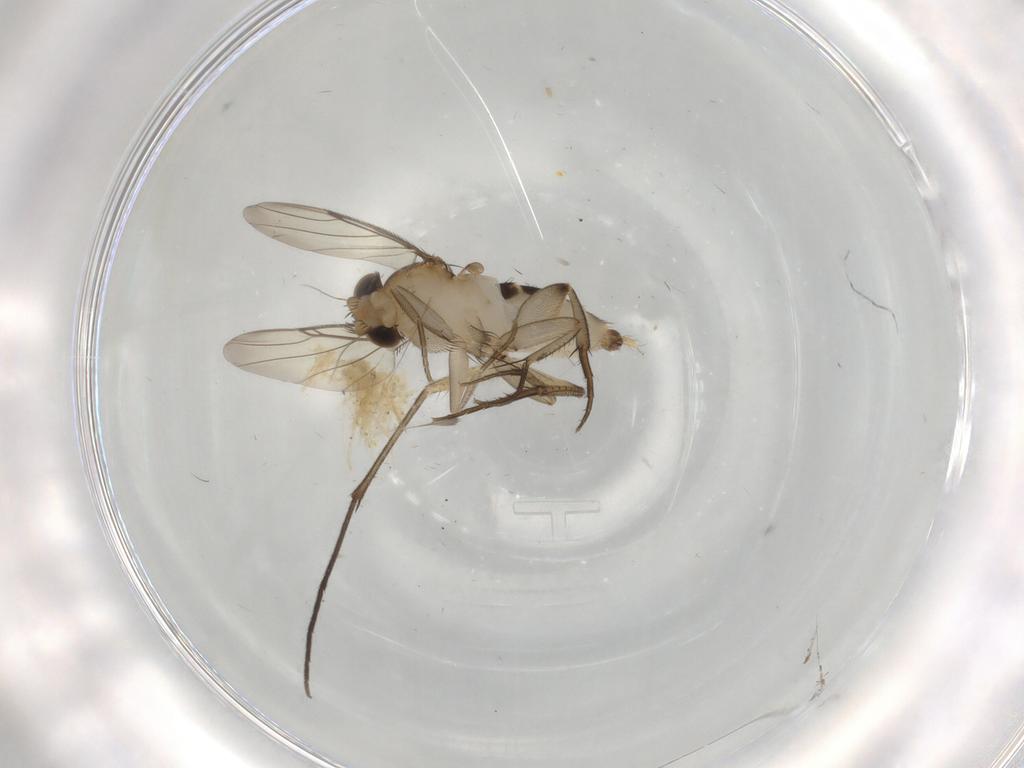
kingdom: Animalia
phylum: Arthropoda
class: Insecta
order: Diptera
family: Phoridae
